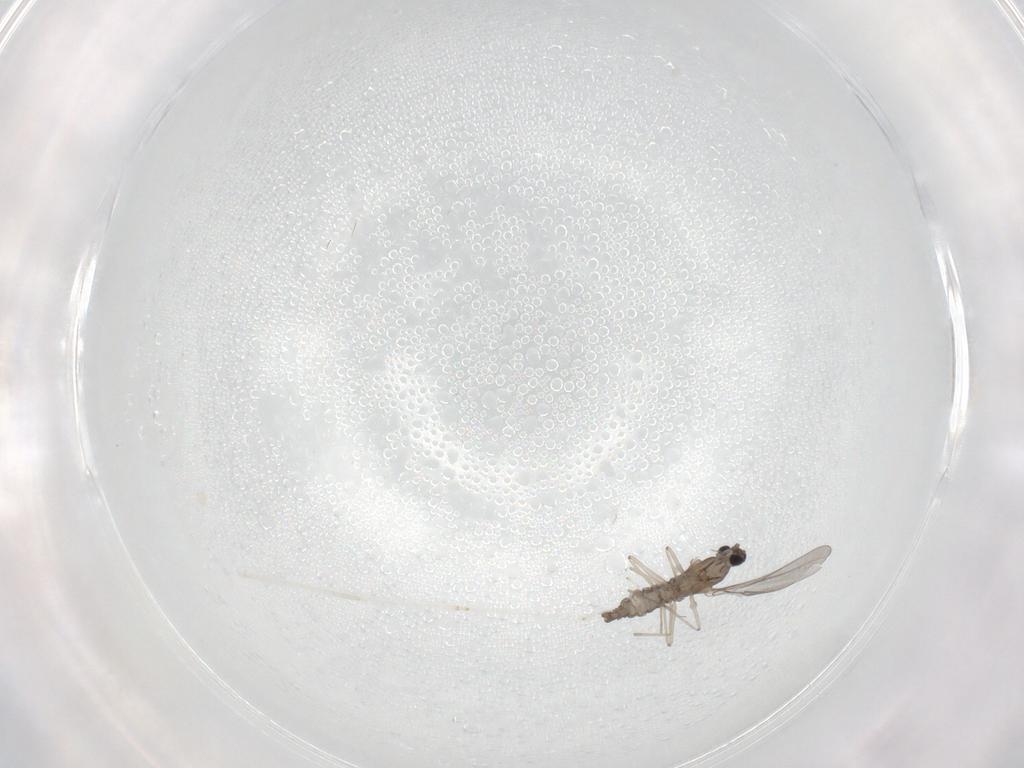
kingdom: Animalia
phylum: Arthropoda
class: Insecta
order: Diptera
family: Cecidomyiidae
